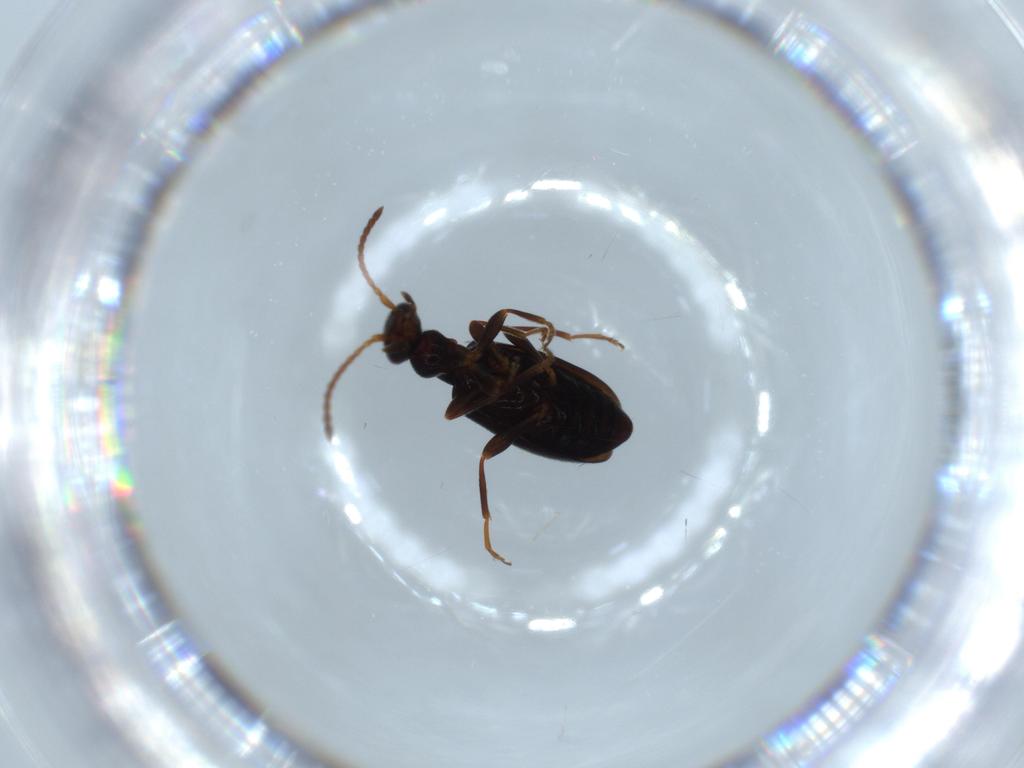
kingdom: Animalia
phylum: Arthropoda
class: Insecta
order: Coleoptera
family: Anthicidae
